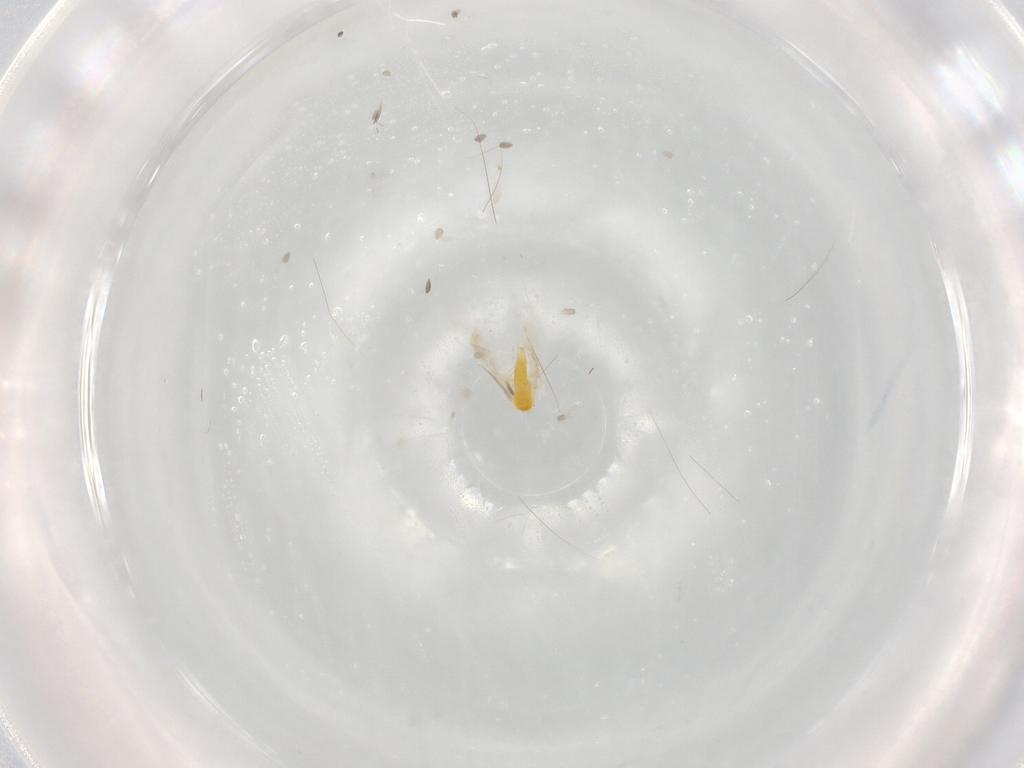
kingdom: Animalia
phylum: Arthropoda
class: Insecta
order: Hemiptera
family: Aleyrodidae
